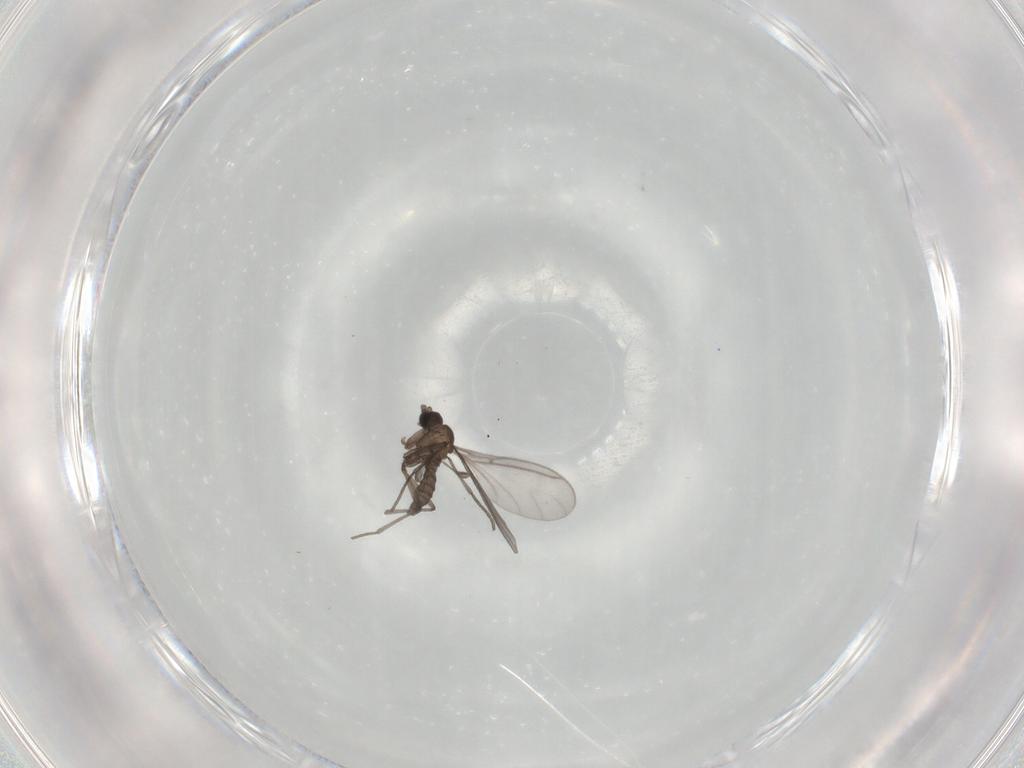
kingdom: Animalia
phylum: Arthropoda
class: Insecta
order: Diptera
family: Sciaridae
